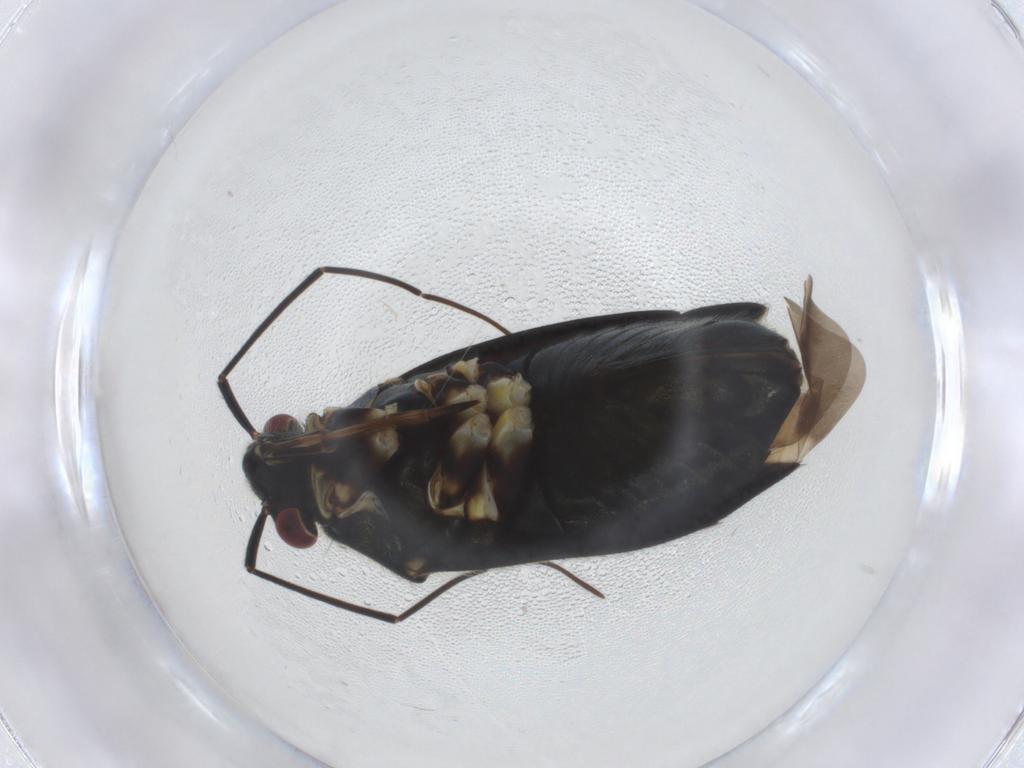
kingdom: Animalia
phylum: Arthropoda
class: Insecta
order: Hemiptera
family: Miridae
